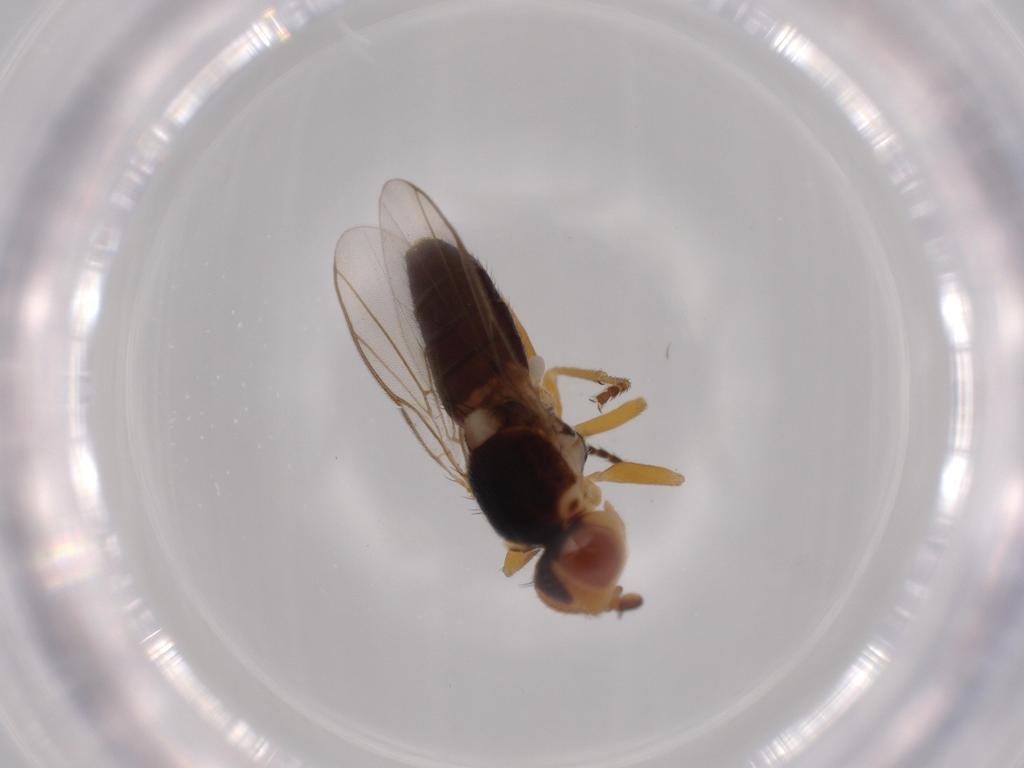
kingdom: Animalia
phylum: Arthropoda
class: Insecta
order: Diptera
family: Chloropidae
